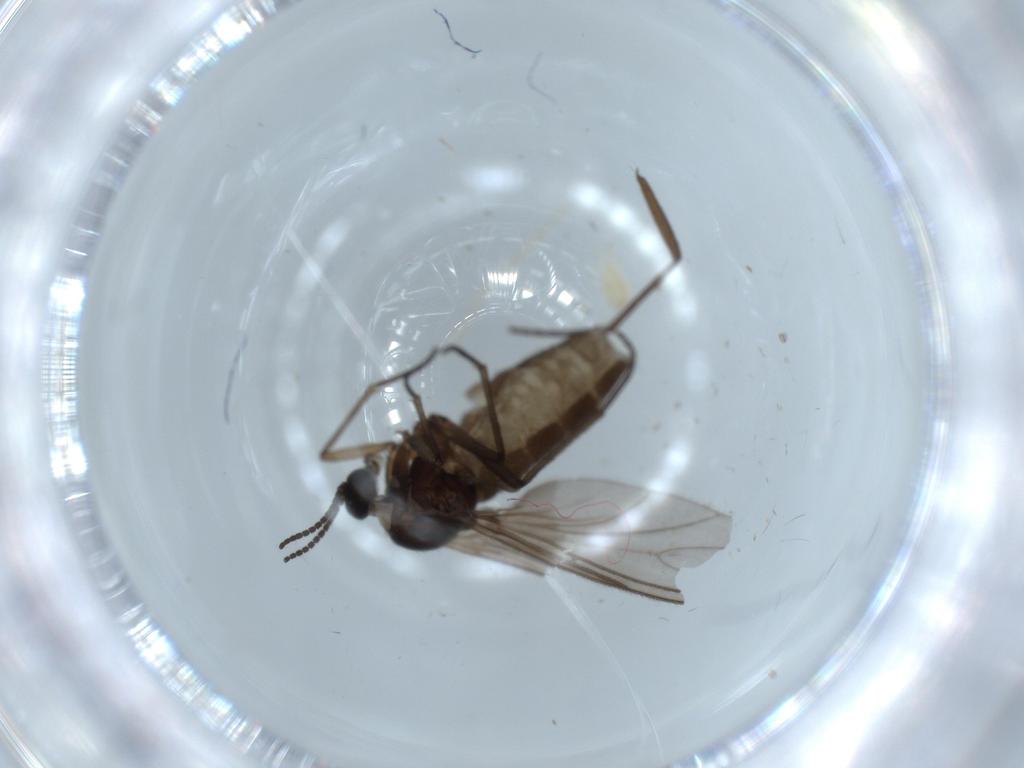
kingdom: Animalia
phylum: Arthropoda
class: Insecta
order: Diptera
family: Sciaridae
